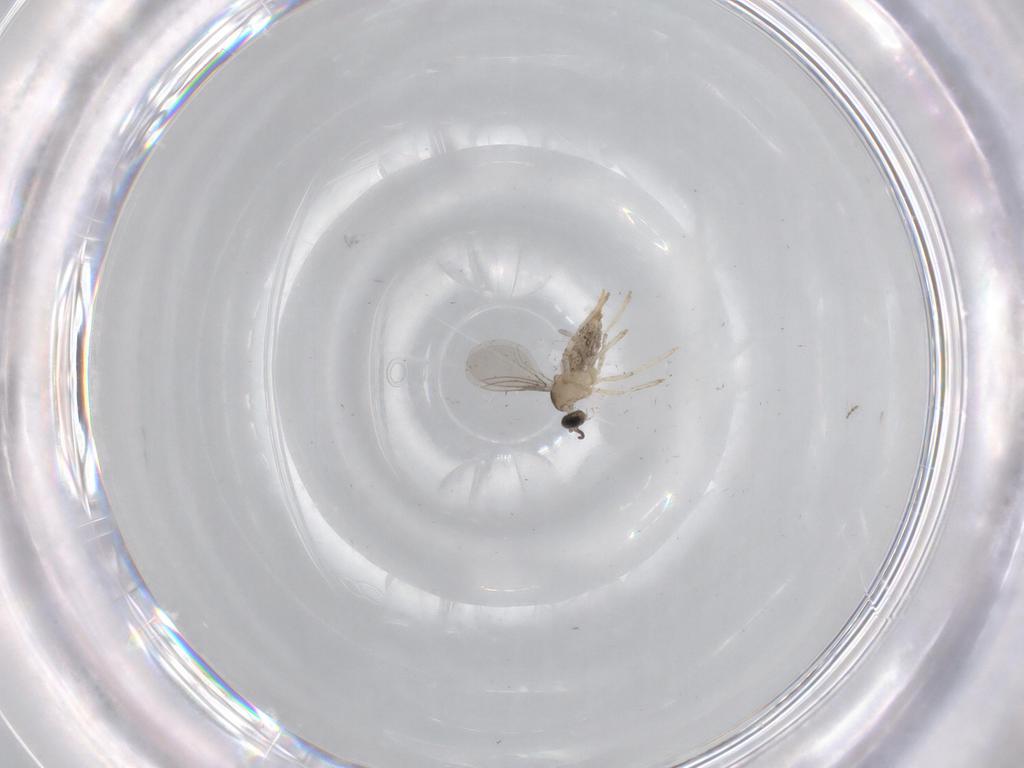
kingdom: Animalia
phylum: Arthropoda
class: Insecta
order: Diptera
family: Cecidomyiidae
